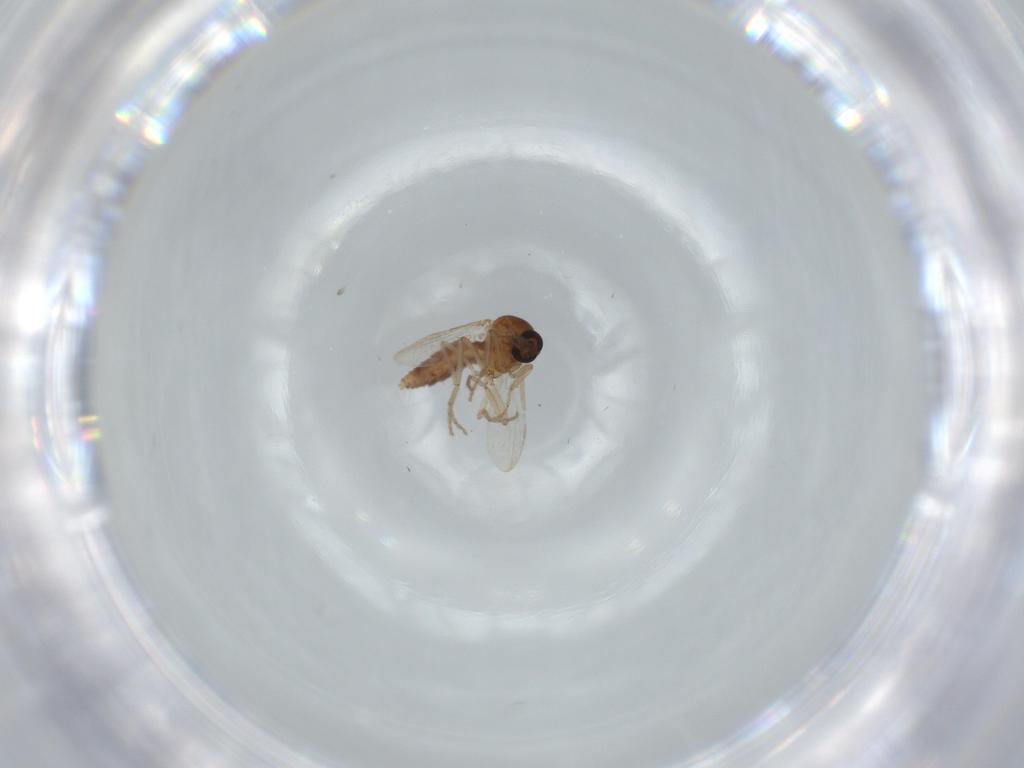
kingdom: Animalia
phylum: Arthropoda
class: Insecta
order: Diptera
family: Ceratopogonidae
